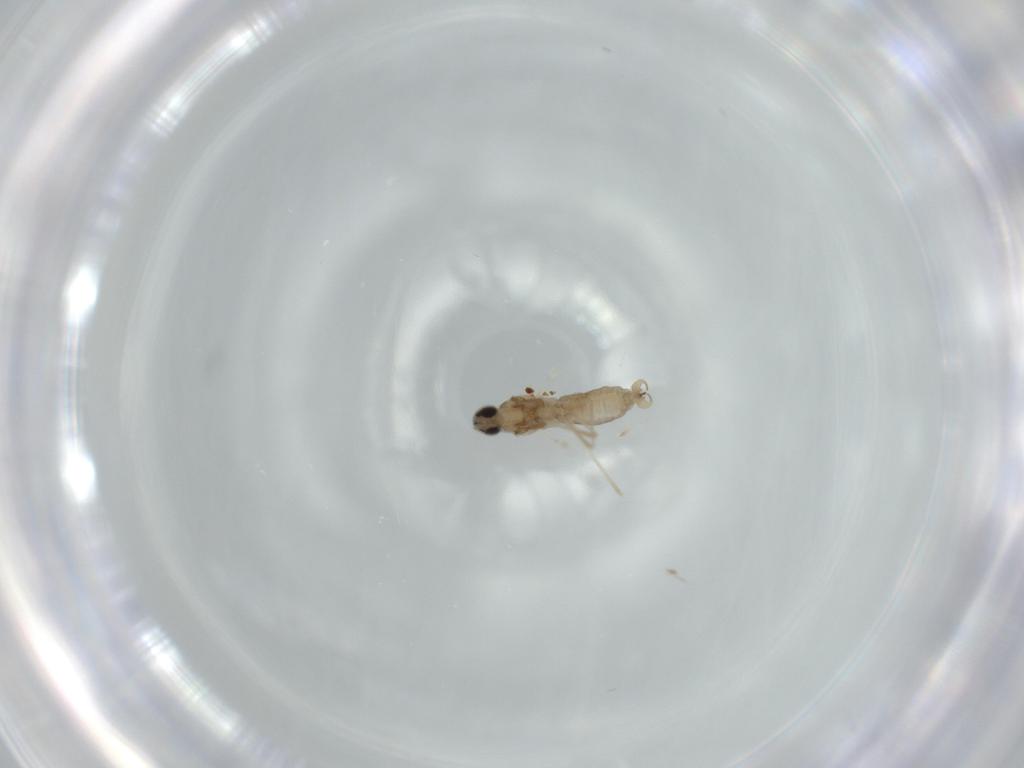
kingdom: Animalia
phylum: Arthropoda
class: Insecta
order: Diptera
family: Cecidomyiidae
